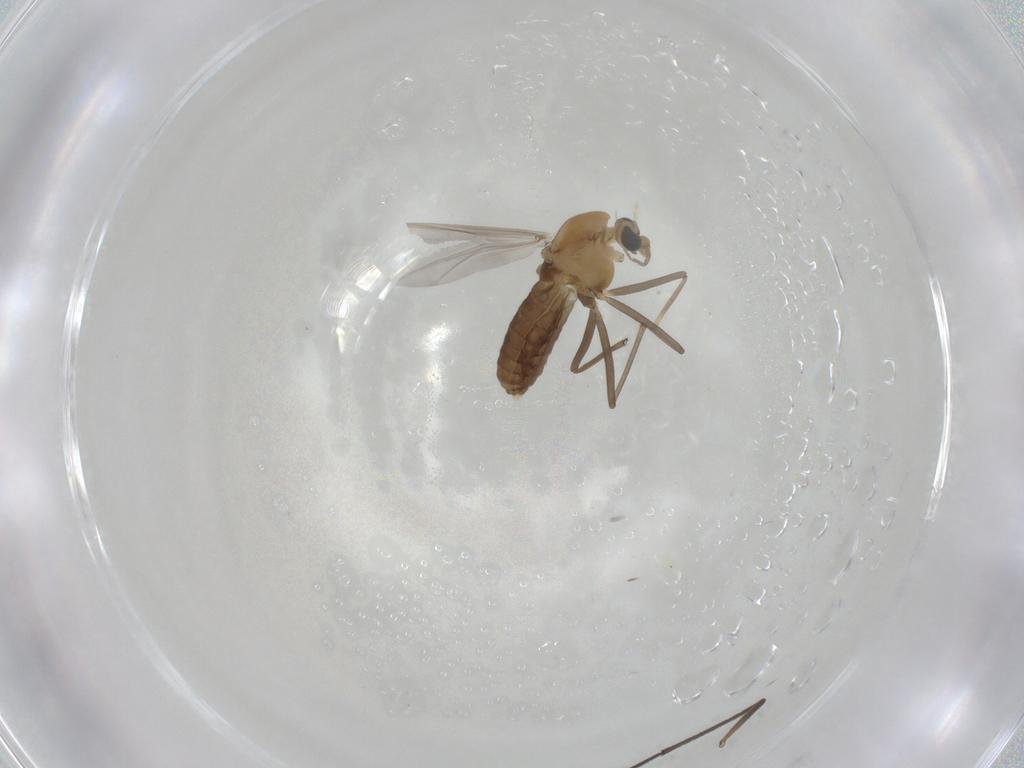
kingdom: Animalia
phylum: Arthropoda
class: Insecta
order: Diptera
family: Chironomidae
